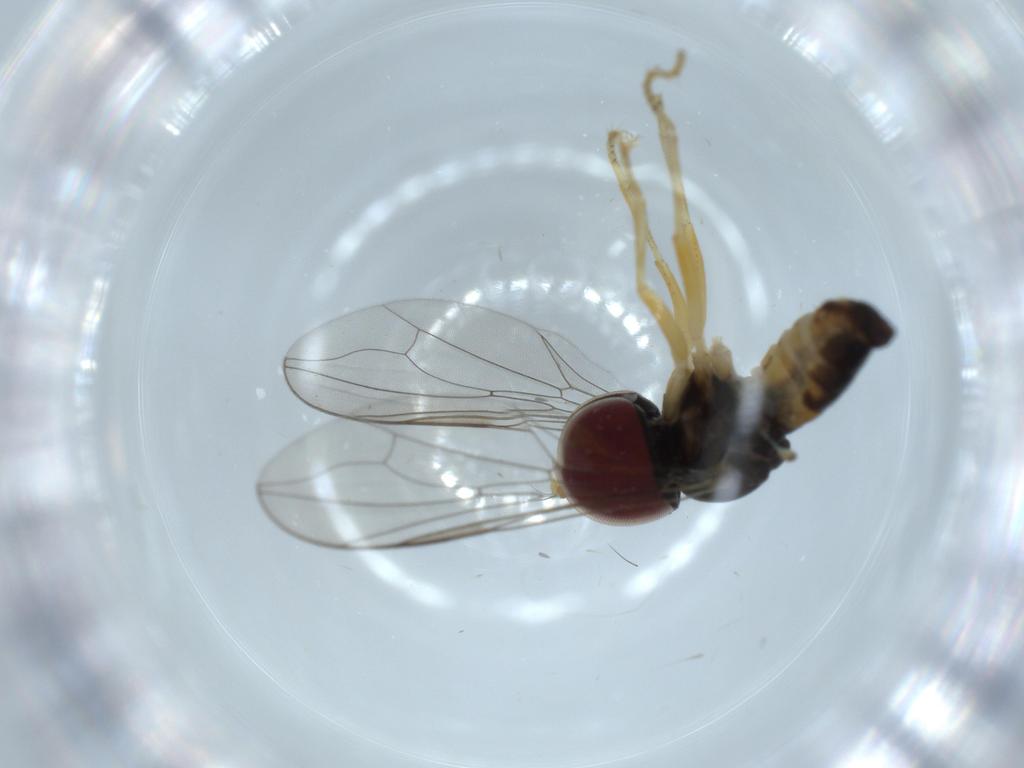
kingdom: Animalia
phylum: Arthropoda
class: Insecta
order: Diptera
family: Pipunculidae
